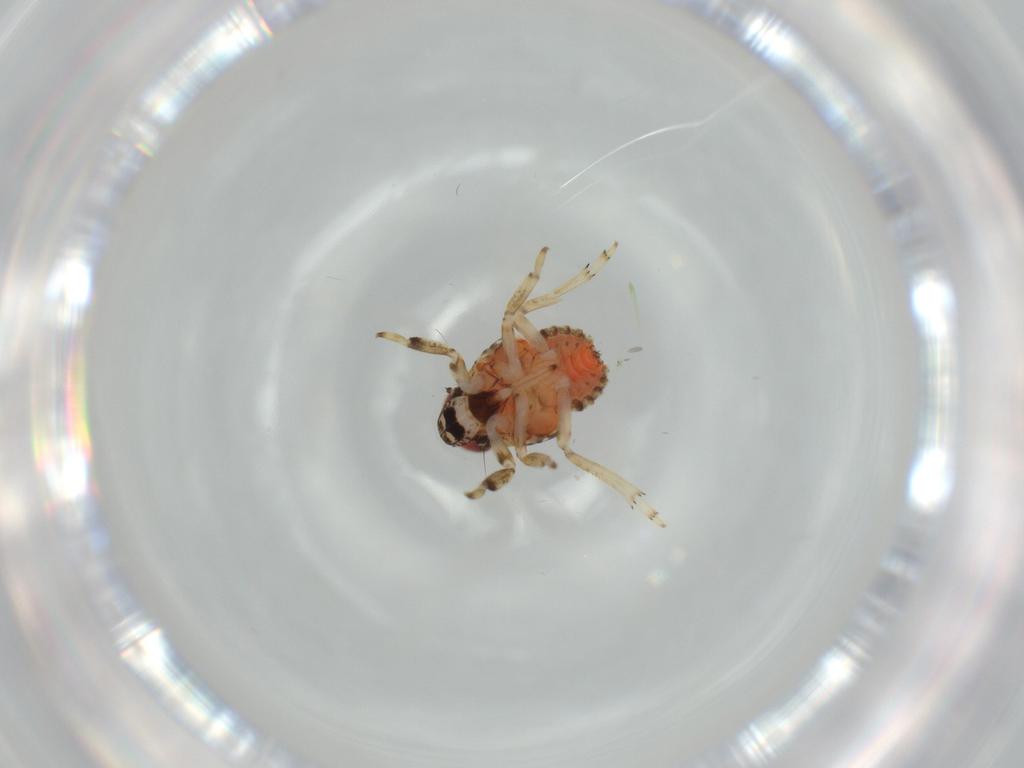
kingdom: Animalia
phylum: Arthropoda
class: Insecta
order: Hemiptera
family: Issidae
